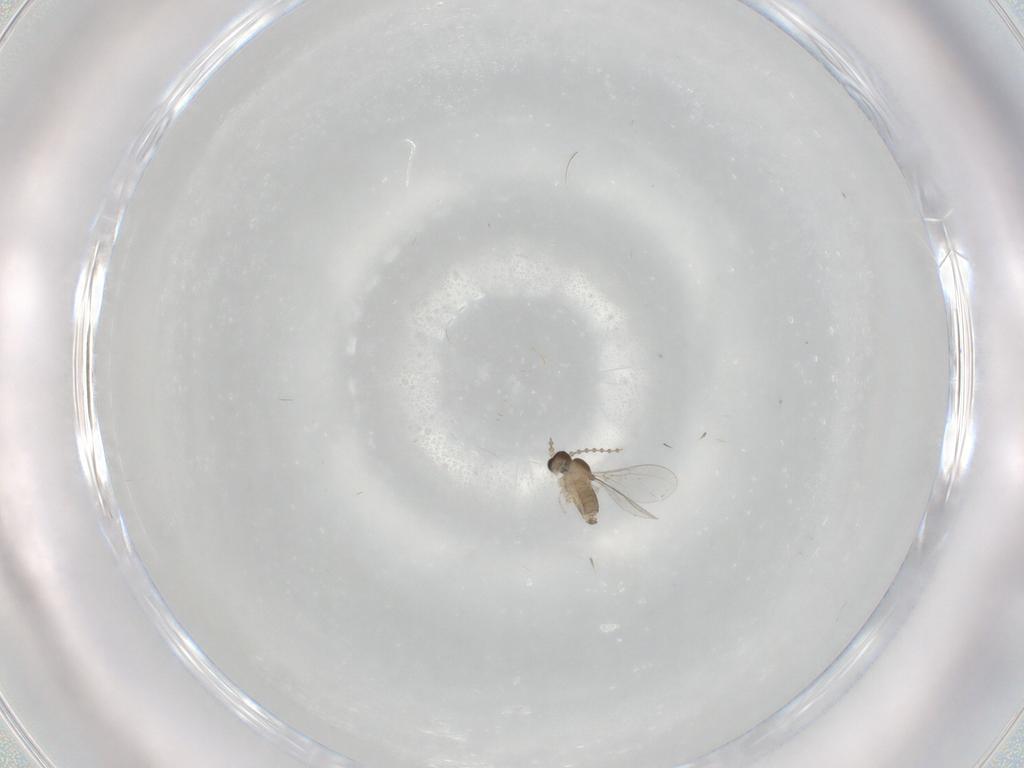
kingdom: Animalia
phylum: Arthropoda
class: Insecta
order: Diptera
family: Cecidomyiidae
